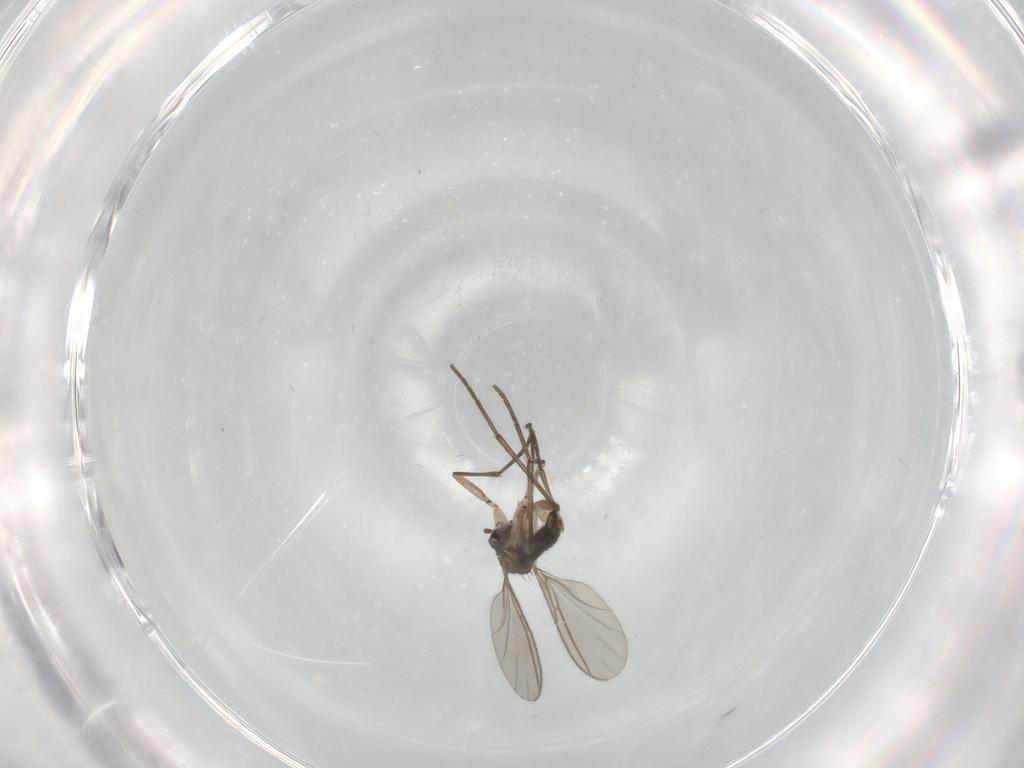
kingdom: Animalia
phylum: Arthropoda
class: Insecta
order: Diptera
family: Sciaridae
